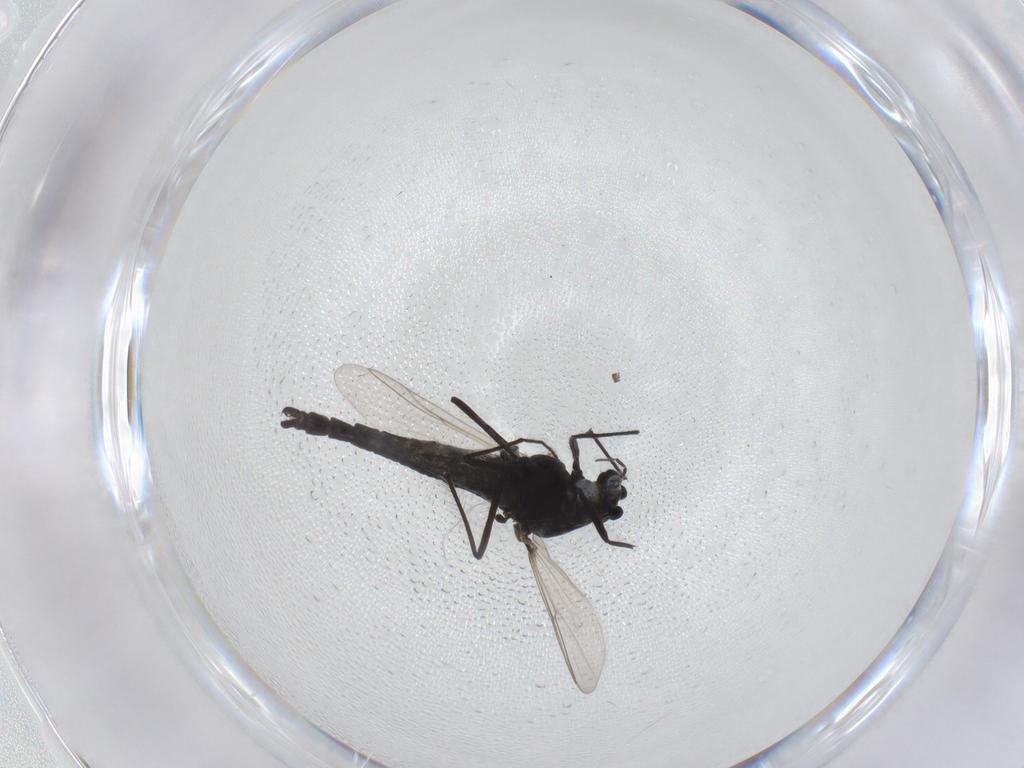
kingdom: Animalia
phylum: Arthropoda
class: Insecta
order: Diptera
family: Chironomidae
